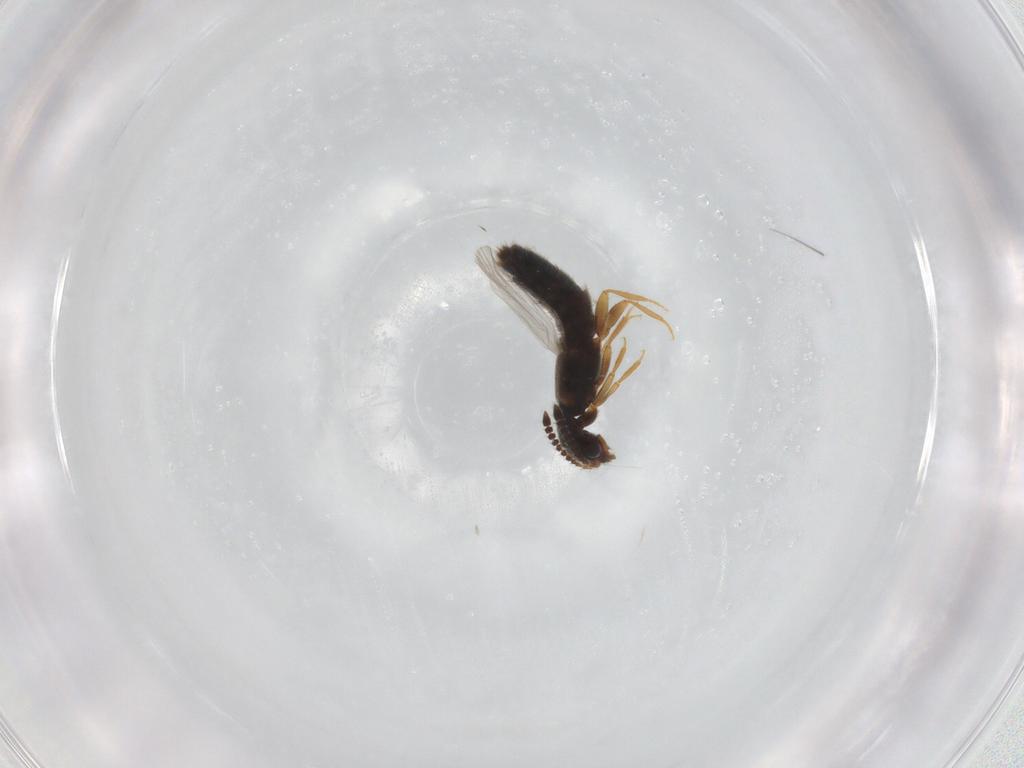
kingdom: Animalia
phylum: Arthropoda
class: Insecta
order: Coleoptera
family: Staphylinidae
